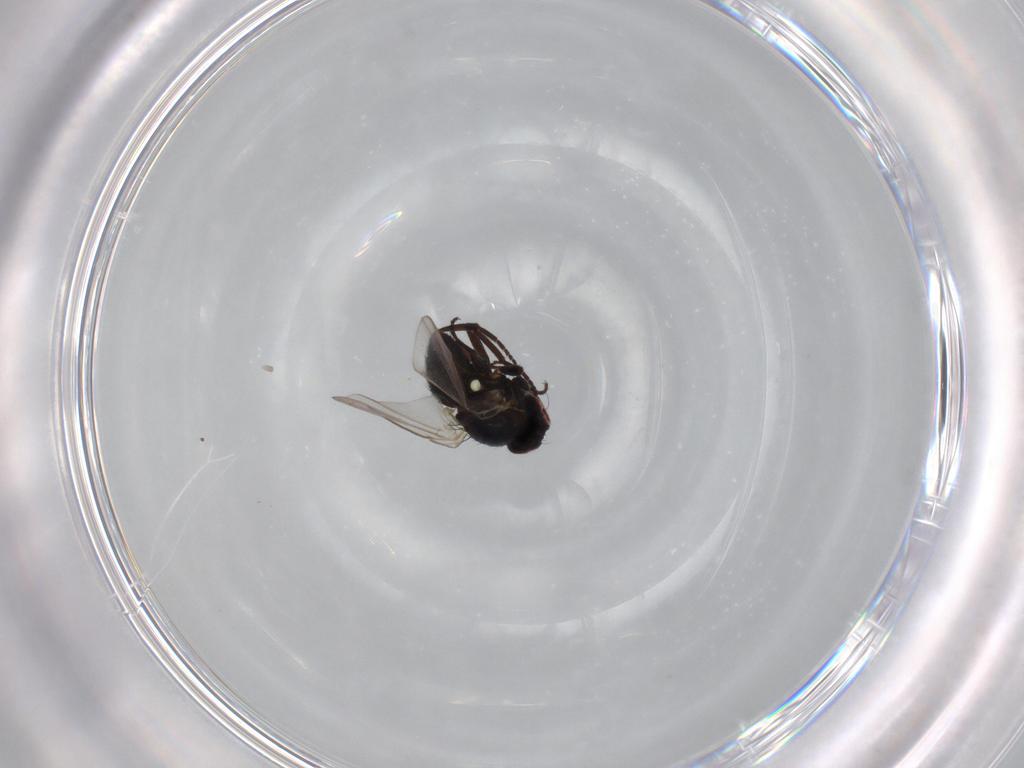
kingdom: Animalia
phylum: Arthropoda
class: Insecta
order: Diptera
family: Agromyzidae
